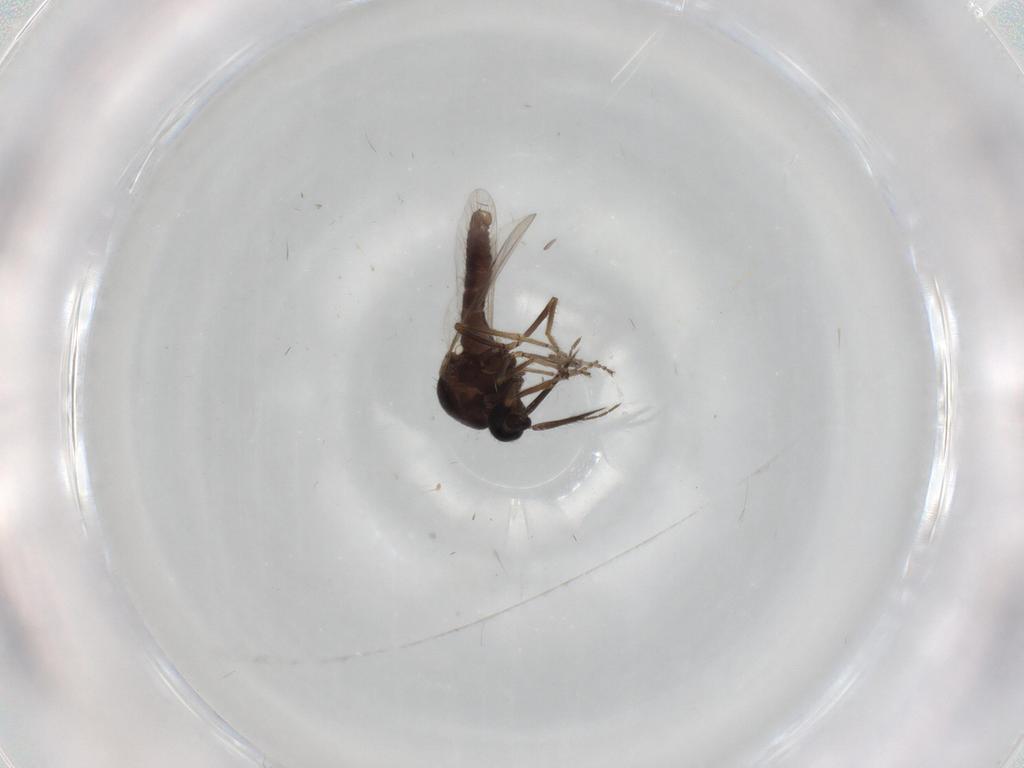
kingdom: Animalia
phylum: Arthropoda
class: Insecta
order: Diptera
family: Ceratopogonidae
